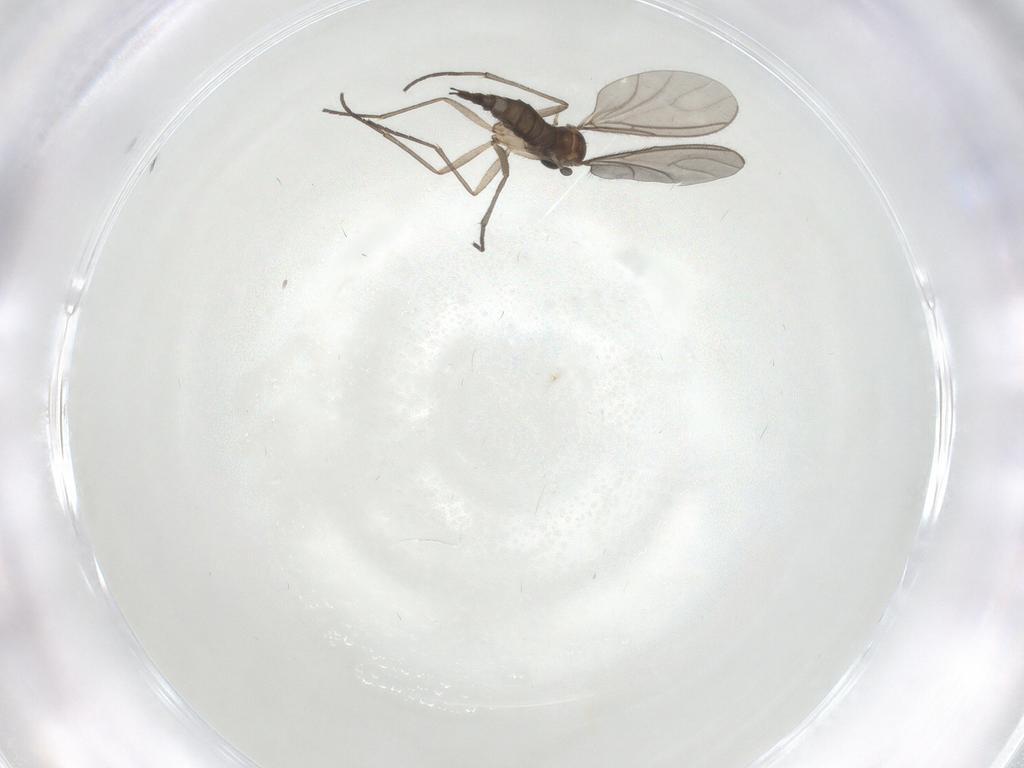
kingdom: Animalia
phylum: Arthropoda
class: Insecta
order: Diptera
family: Sciaridae
